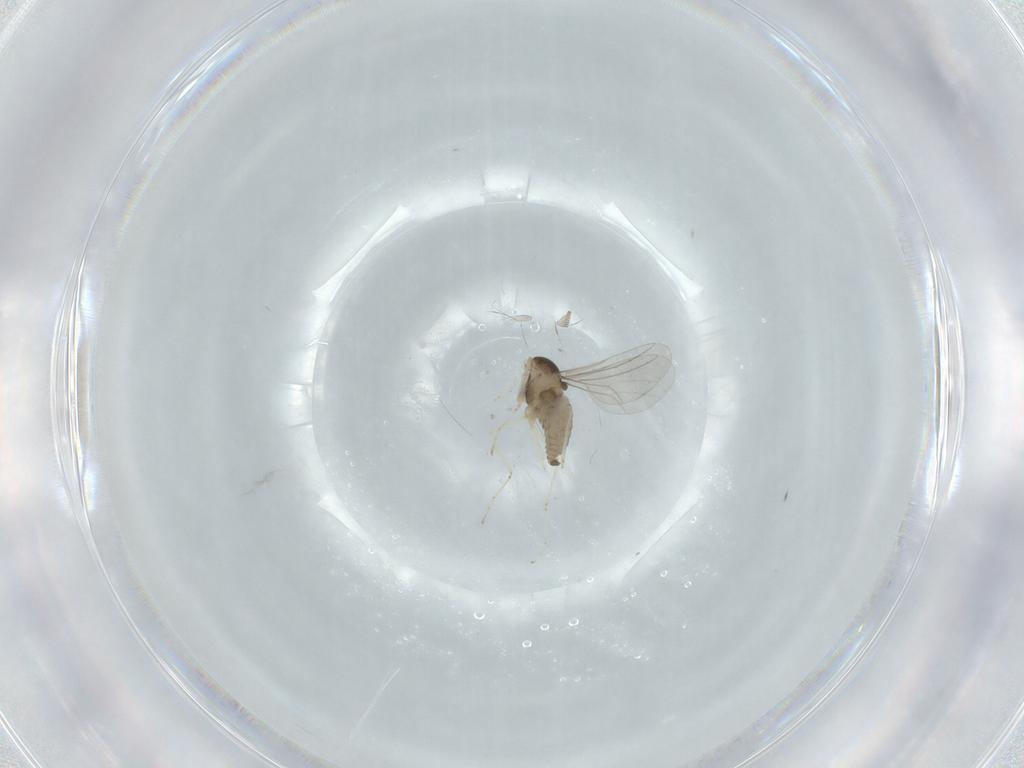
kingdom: Animalia
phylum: Arthropoda
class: Insecta
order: Diptera
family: Cecidomyiidae
